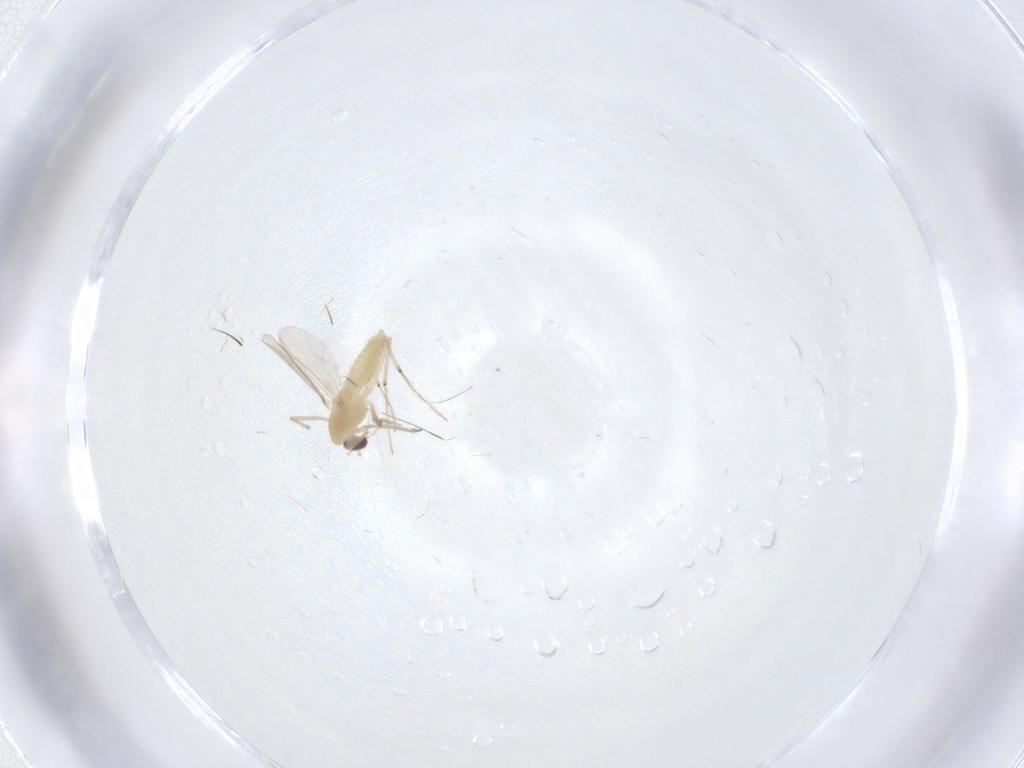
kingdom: Animalia
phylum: Arthropoda
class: Insecta
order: Diptera
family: Chironomidae
